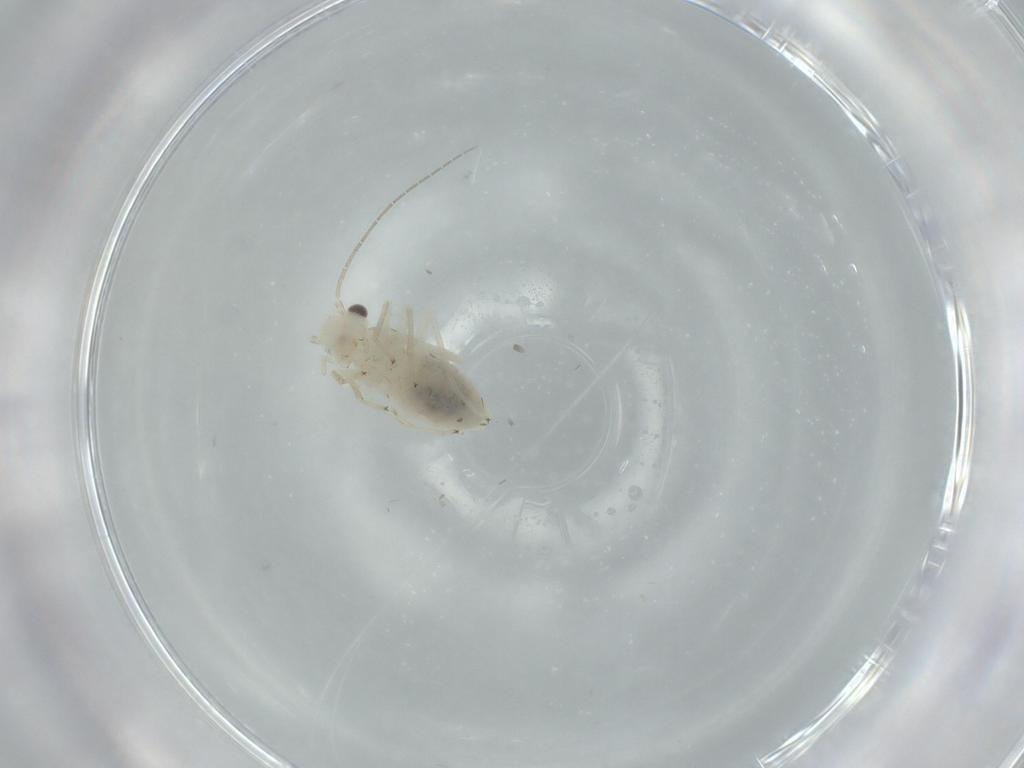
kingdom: Animalia
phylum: Arthropoda
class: Insecta
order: Psocodea
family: Caeciliusidae
